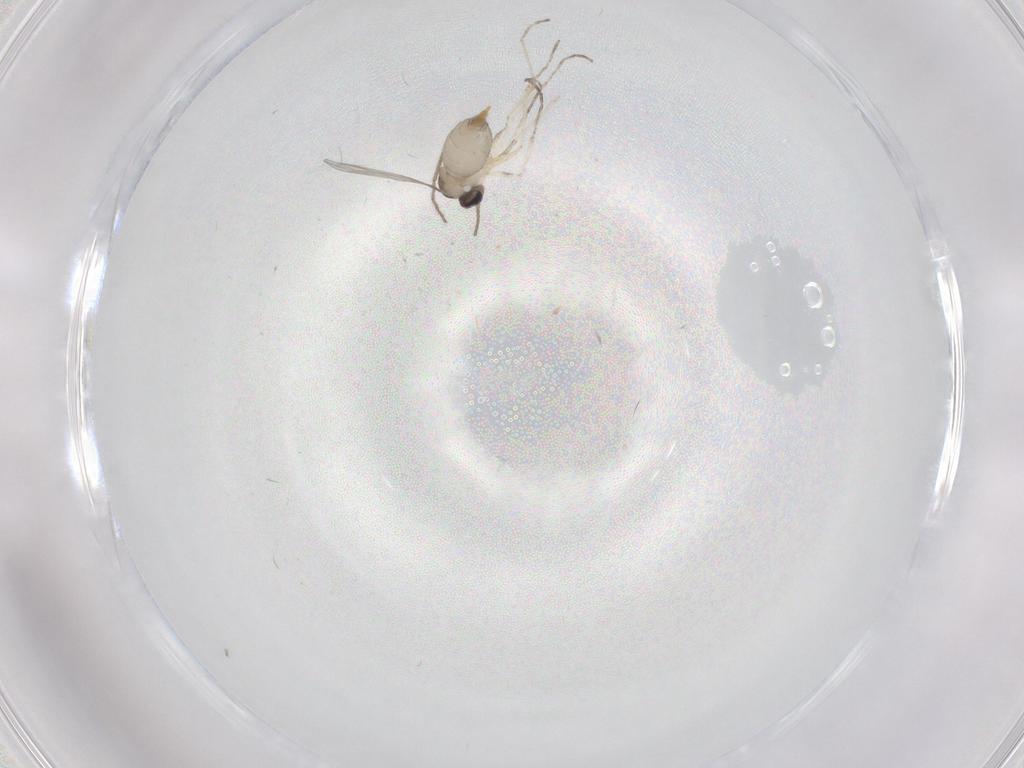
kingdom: Animalia
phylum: Arthropoda
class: Insecta
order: Diptera
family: Chironomidae
